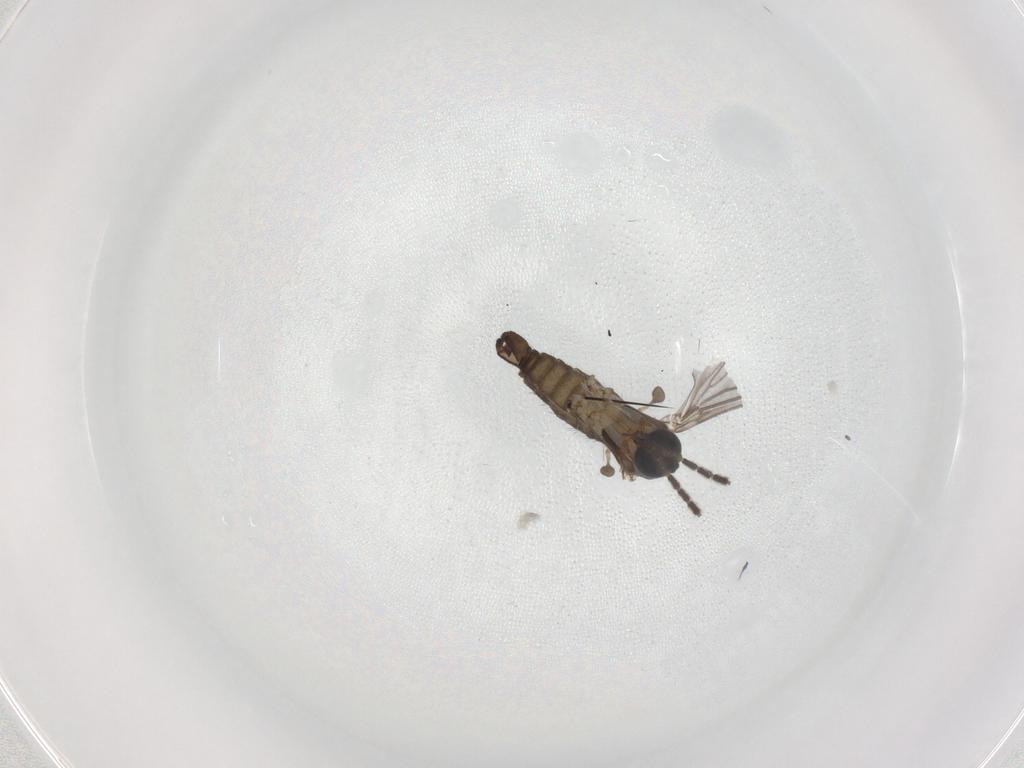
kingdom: Animalia
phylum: Arthropoda
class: Insecta
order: Diptera
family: Sciaridae
